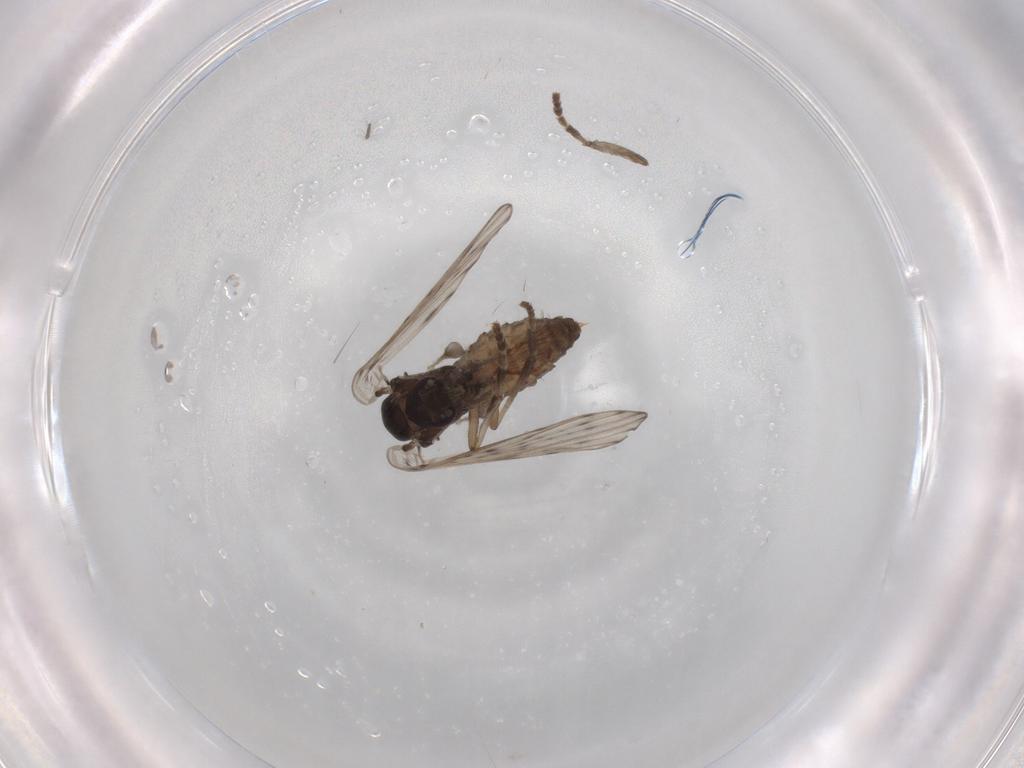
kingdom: Animalia
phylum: Arthropoda
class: Insecta
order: Diptera
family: Psychodidae
